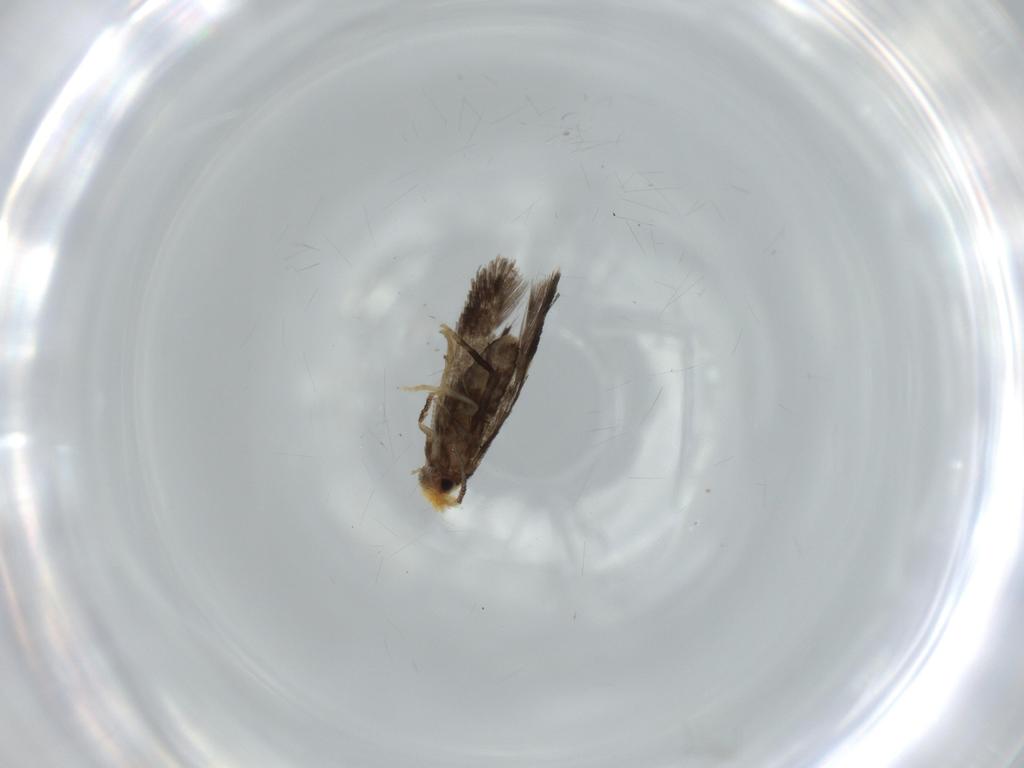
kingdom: Animalia
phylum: Arthropoda
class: Insecta
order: Lepidoptera
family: Nepticulidae
